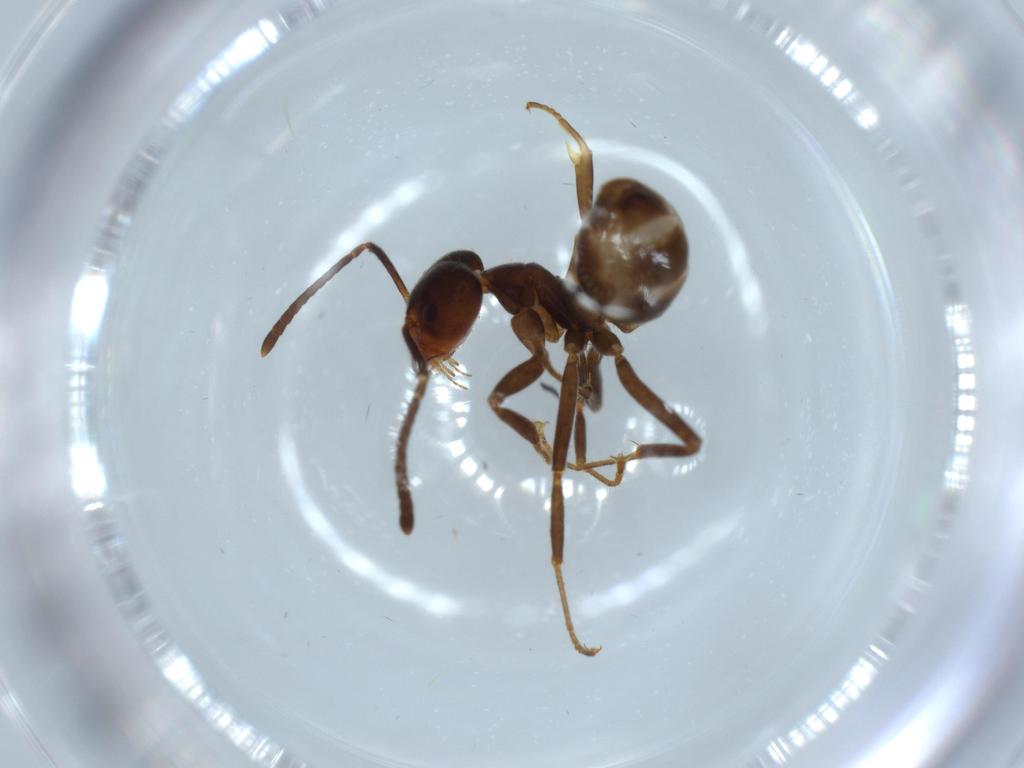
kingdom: Animalia
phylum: Arthropoda
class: Insecta
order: Hymenoptera
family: Formicidae
